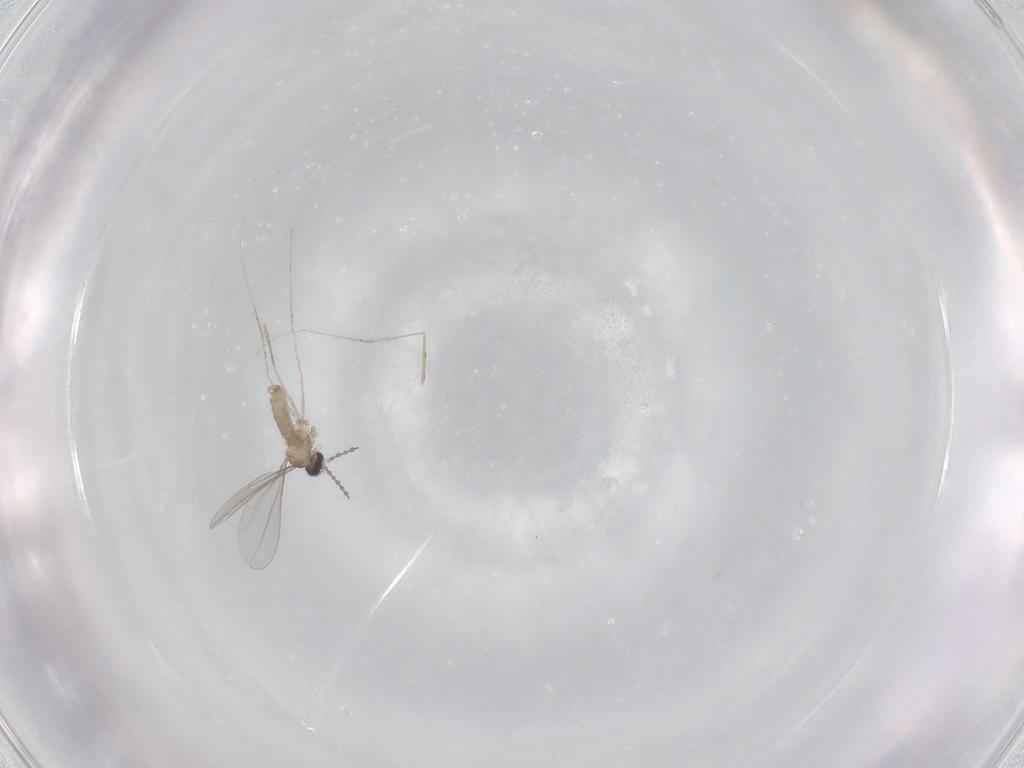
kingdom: Animalia
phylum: Arthropoda
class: Insecta
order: Diptera
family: Cecidomyiidae
